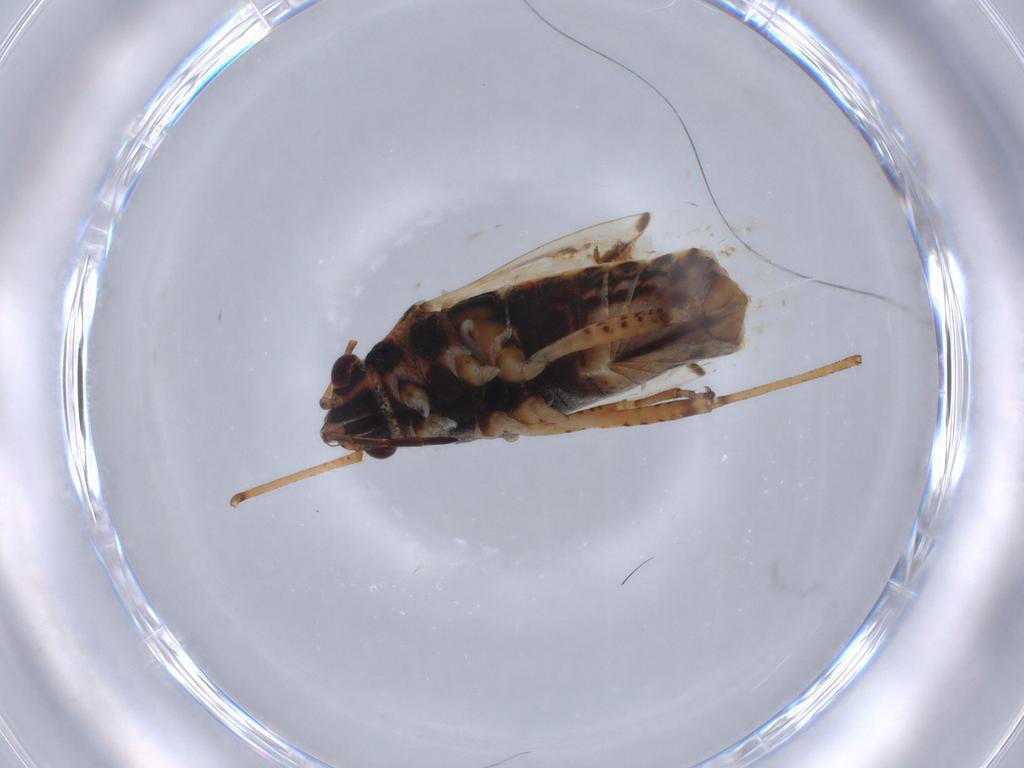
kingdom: Animalia
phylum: Arthropoda
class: Insecta
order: Hemiptera
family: Lygaeidae
